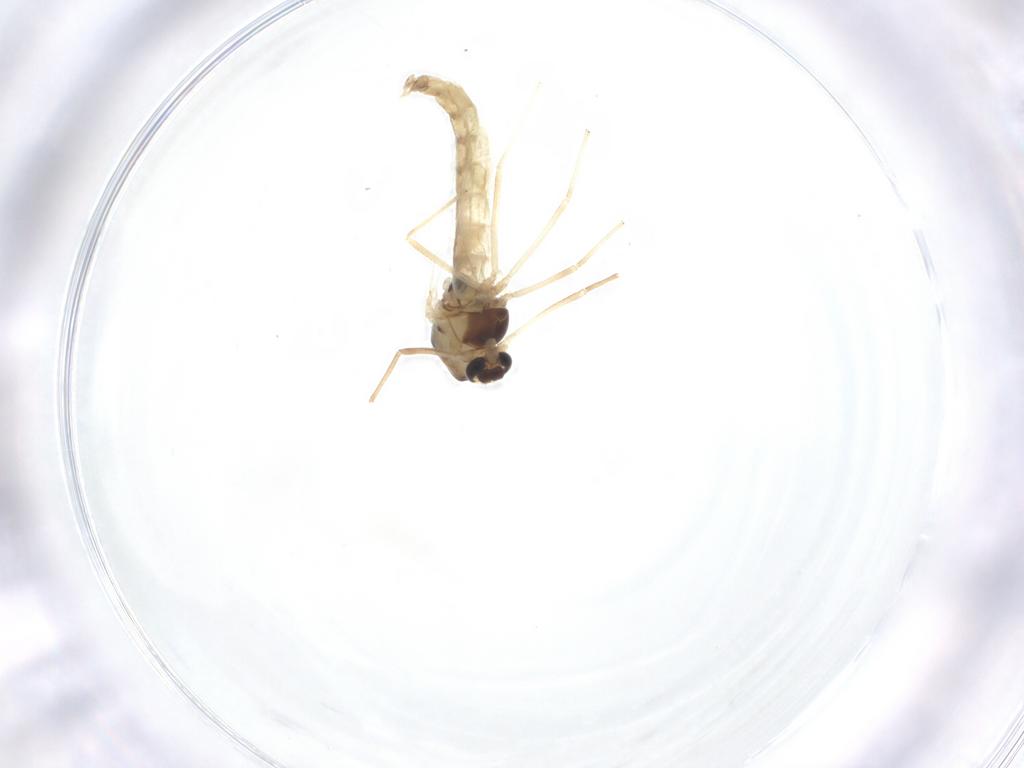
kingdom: Animalia
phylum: Arthropoda
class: Insecta
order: Diptera
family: Chironomidae
